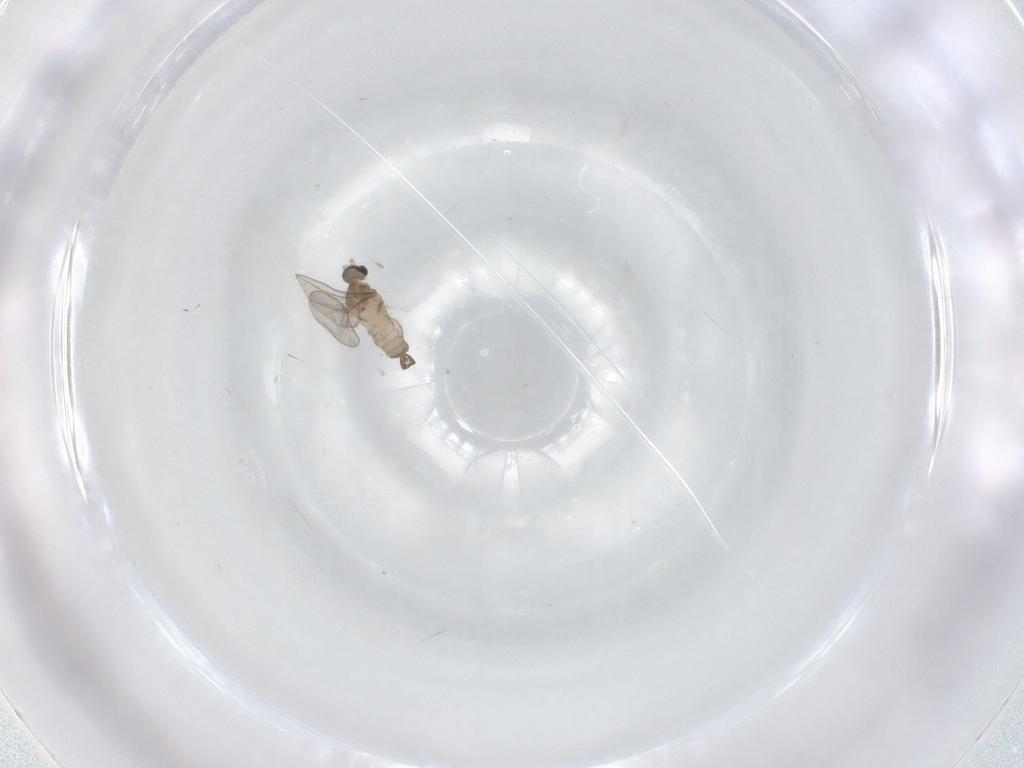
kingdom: Animalia
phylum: Arthropoda
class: Insecta
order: Diptera
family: Cecidomyiidae
